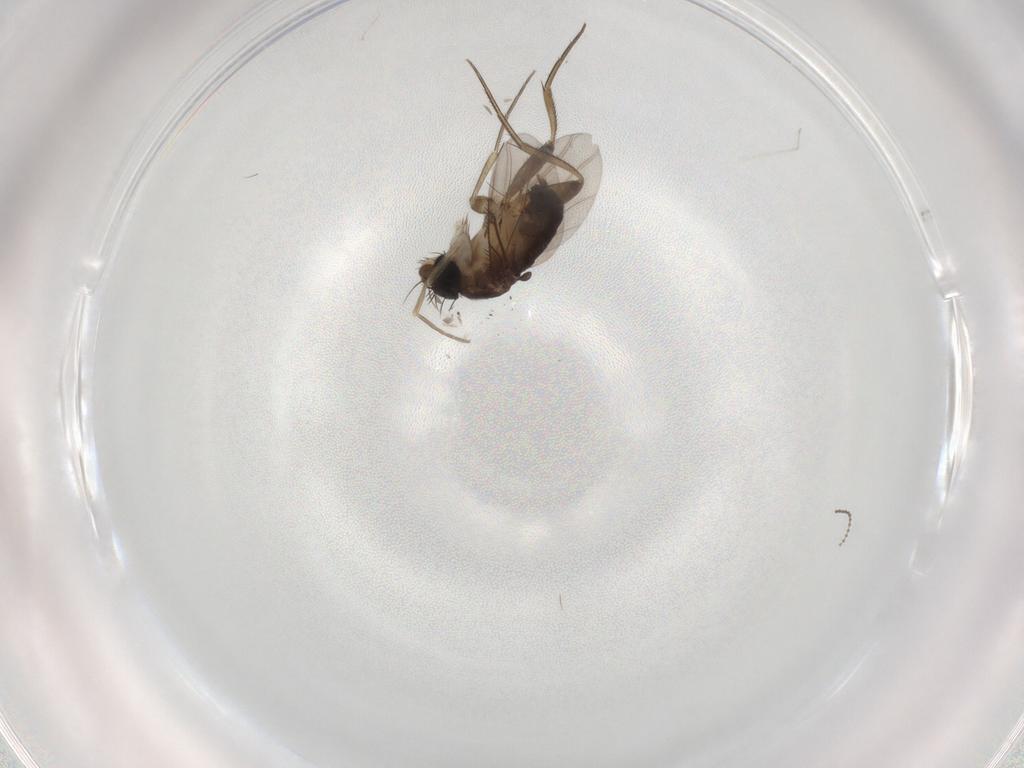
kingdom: Animalia
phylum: Arthropoda
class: Insecta
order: Diptera
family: Phoridae
